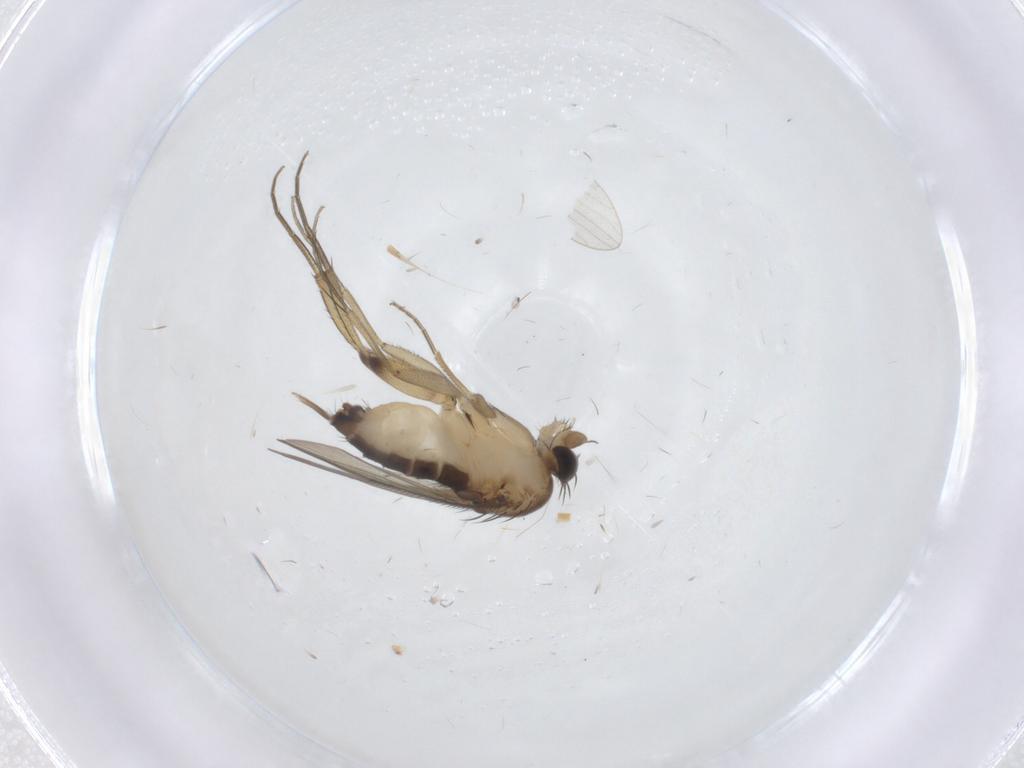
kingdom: Animalia
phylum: Arthropoda
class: Insecta
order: Diptera
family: Phoridae
